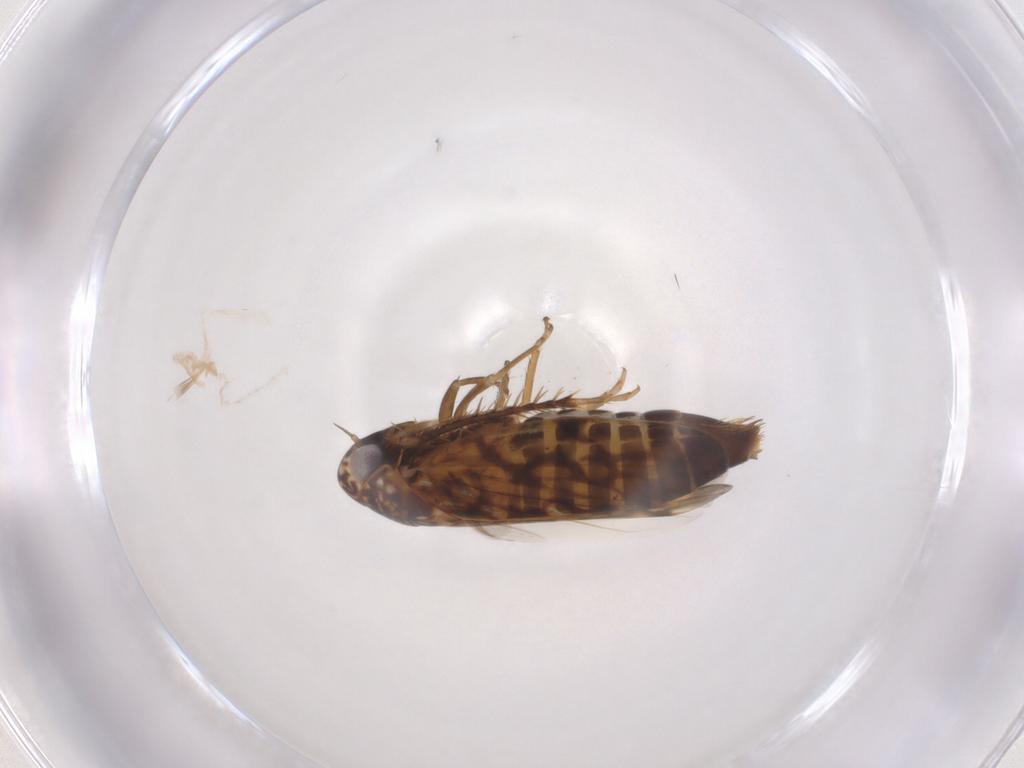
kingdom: Animalia
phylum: Arthropoda
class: Insecta
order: Hemiptera
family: Cicadellidae
